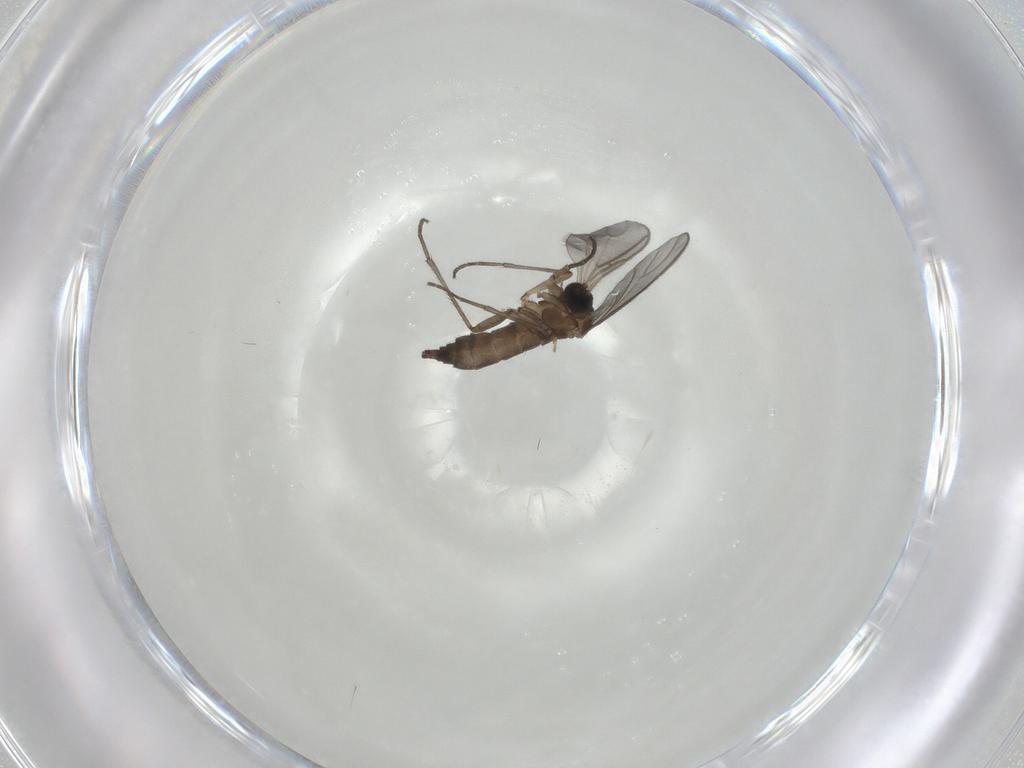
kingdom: Animalia
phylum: Arthropoda
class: Insecta
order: Diptera
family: Sciaridae
